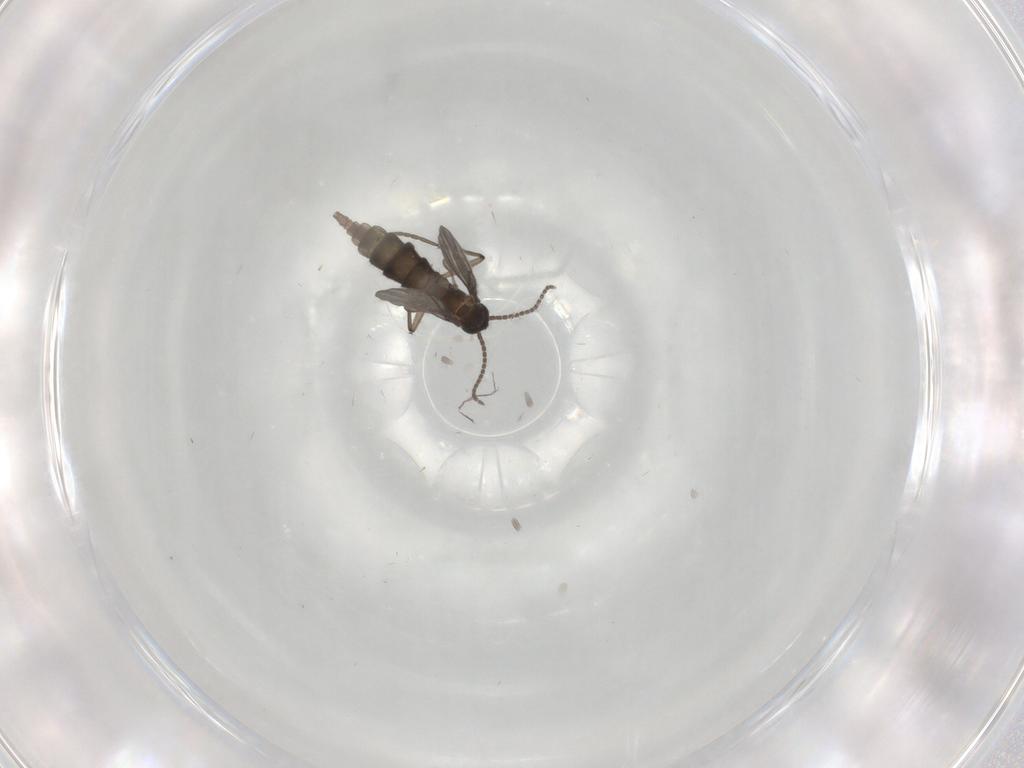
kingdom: Animalia
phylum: Arthropoda
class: Insecta
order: Diptera
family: Sciaridae
